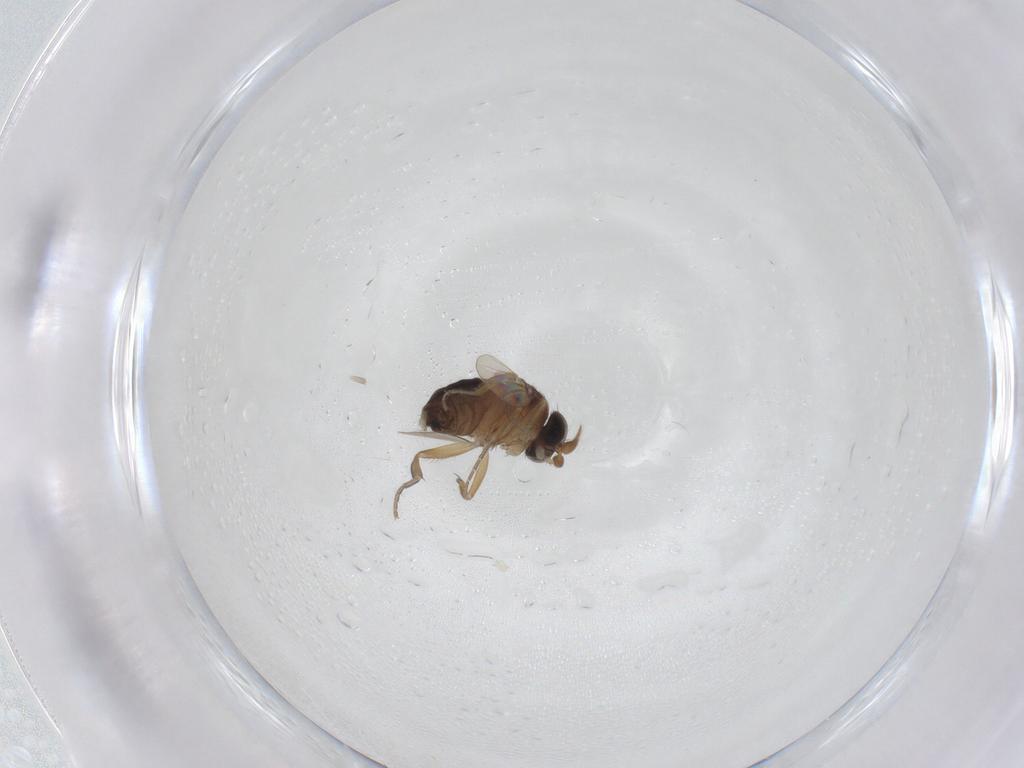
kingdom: Animalia
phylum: Arthropoda
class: Insecta
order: Diptera
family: Phoridae
